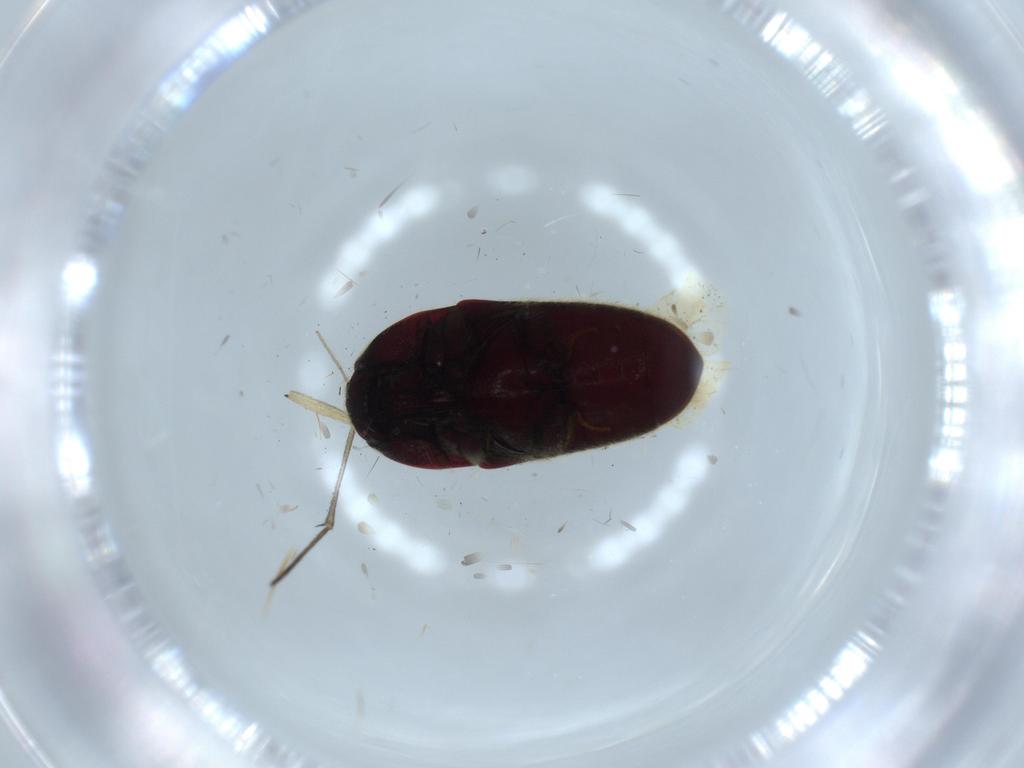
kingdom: Animalia
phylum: Arthropoda
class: Insecta
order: Coleoptera
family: Throscidae
